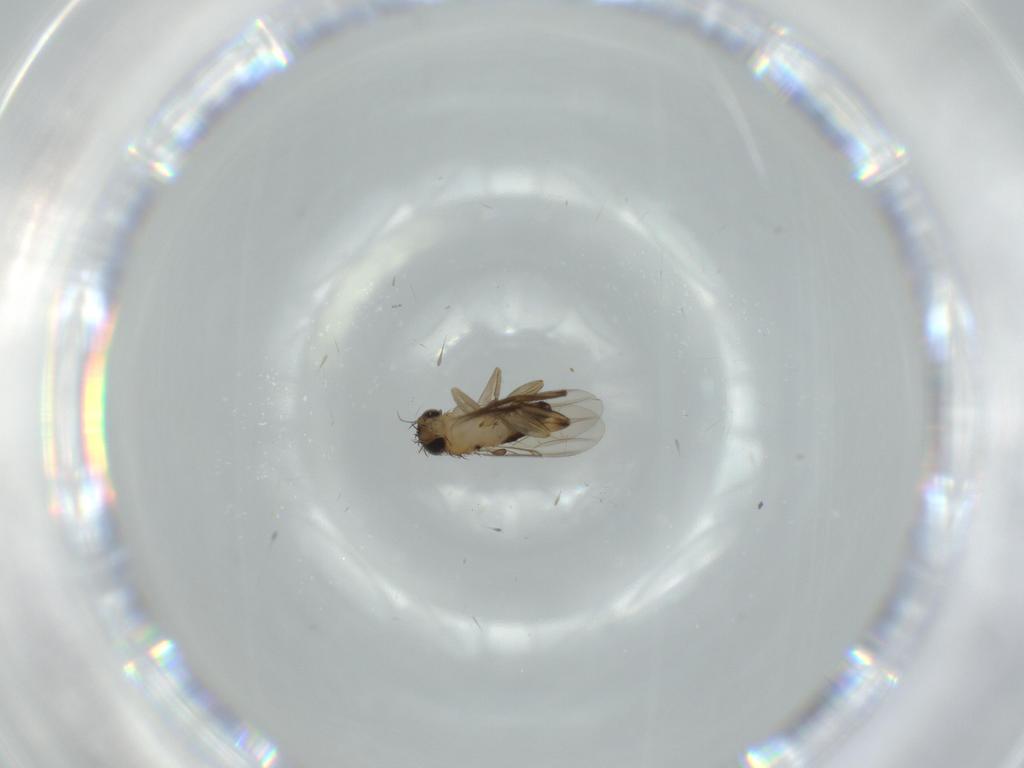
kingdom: Animalia
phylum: Arthropoda
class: Insecta
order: Diptera
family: Phoridae
